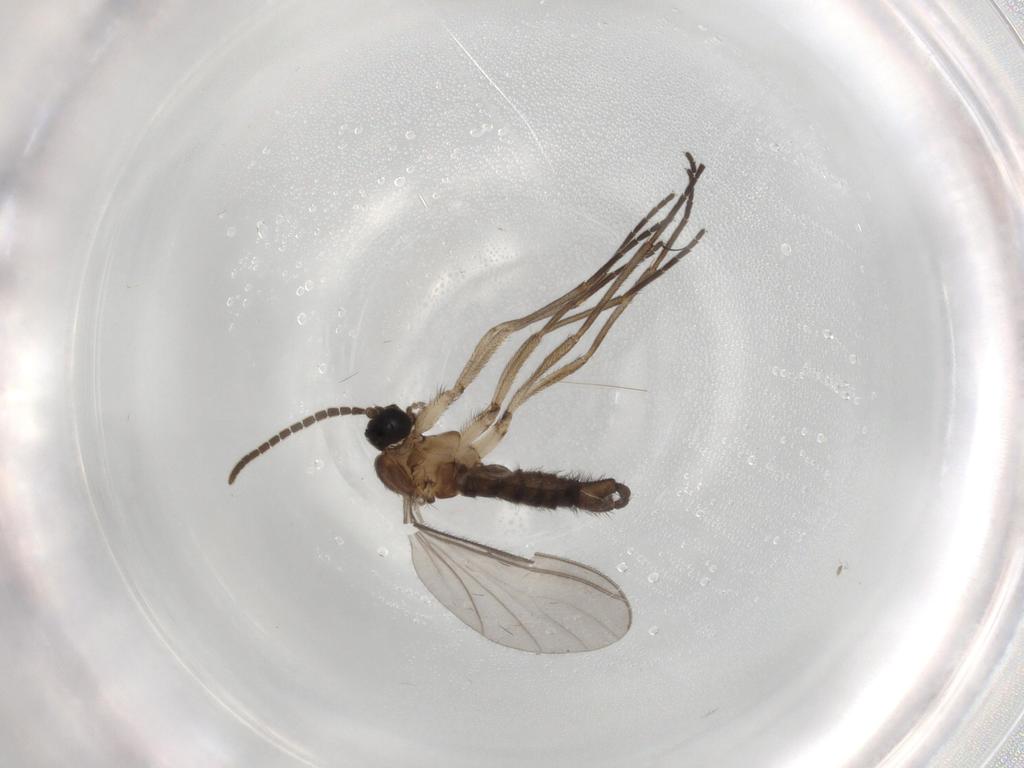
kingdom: Animalia
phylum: Arthropoda
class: Insecta
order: Diptera
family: Sciaridae
